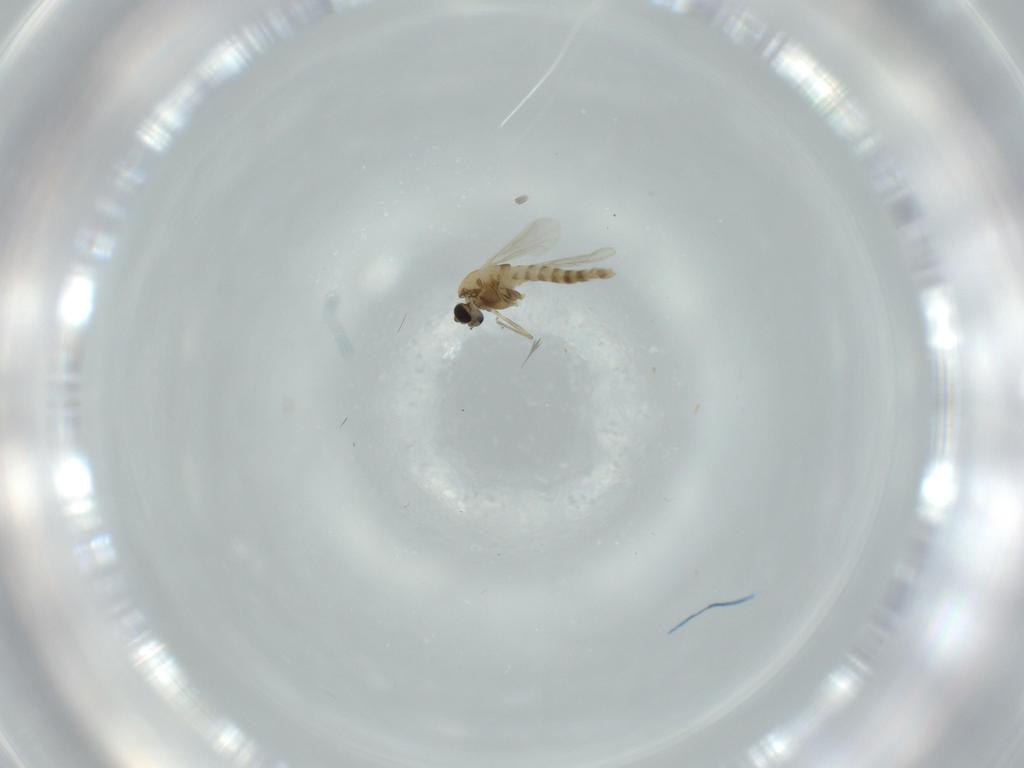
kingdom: Animalia
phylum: Arthropoda
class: Insecta
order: Diptera
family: Chironomidae
